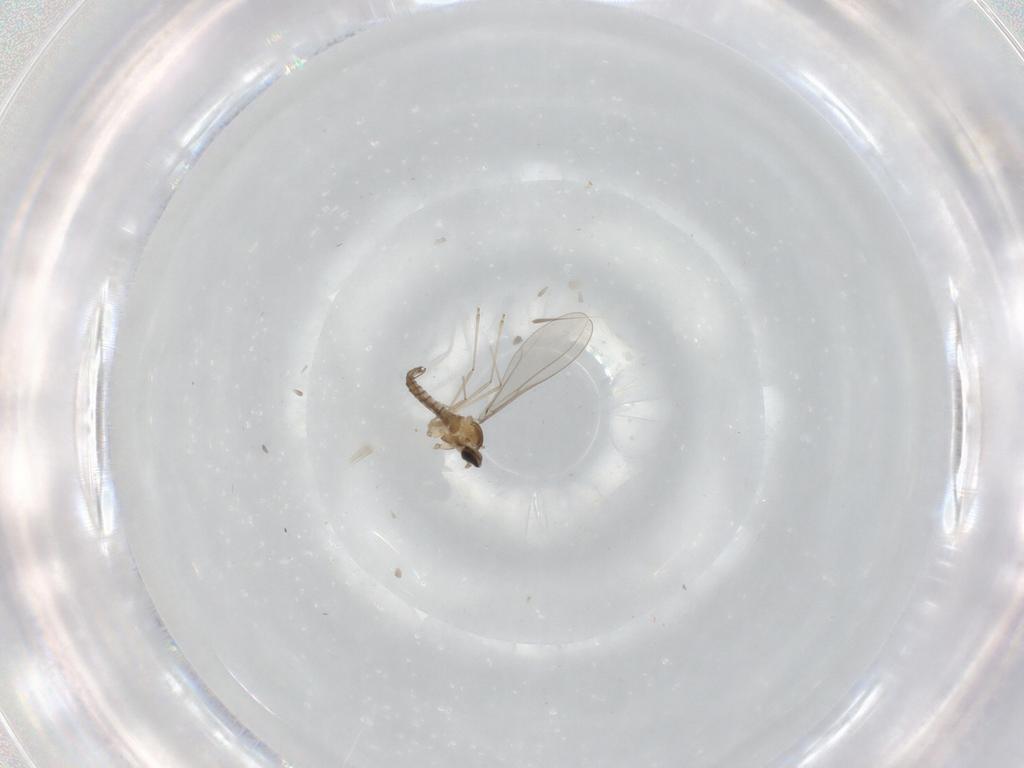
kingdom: Animalia
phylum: Arthropoda
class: Insecta
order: Diptera
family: Cecidomyiidae
